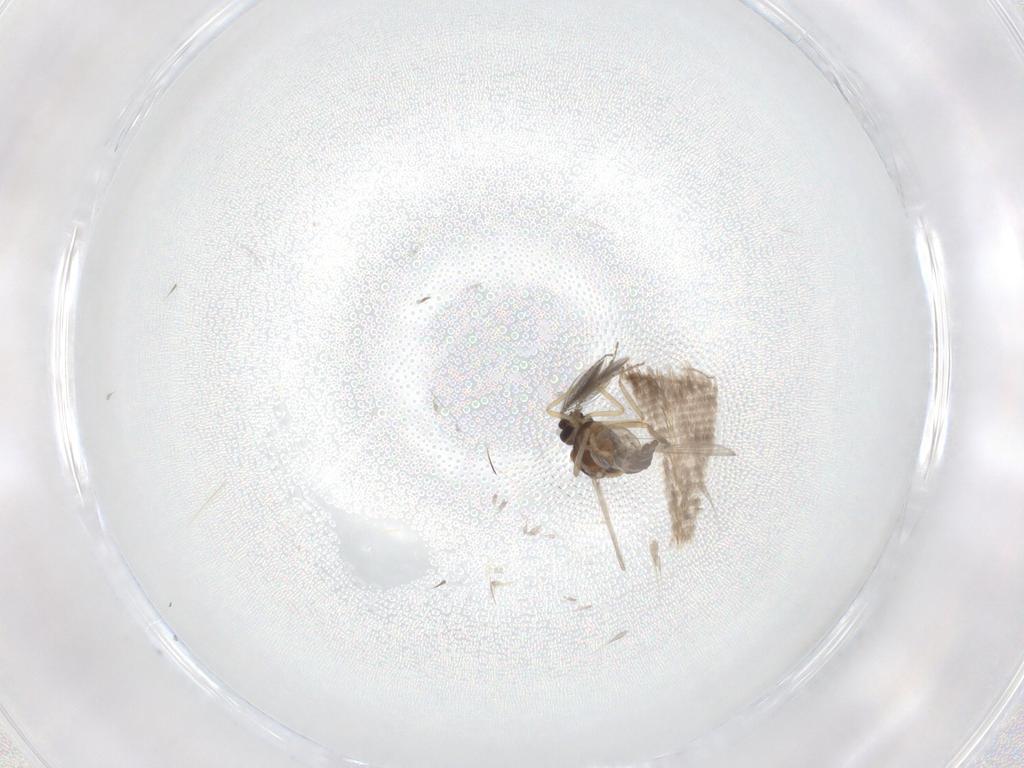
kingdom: Animalia
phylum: Arthropoda
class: Insecta
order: Diptera
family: Ceratopogonidae
